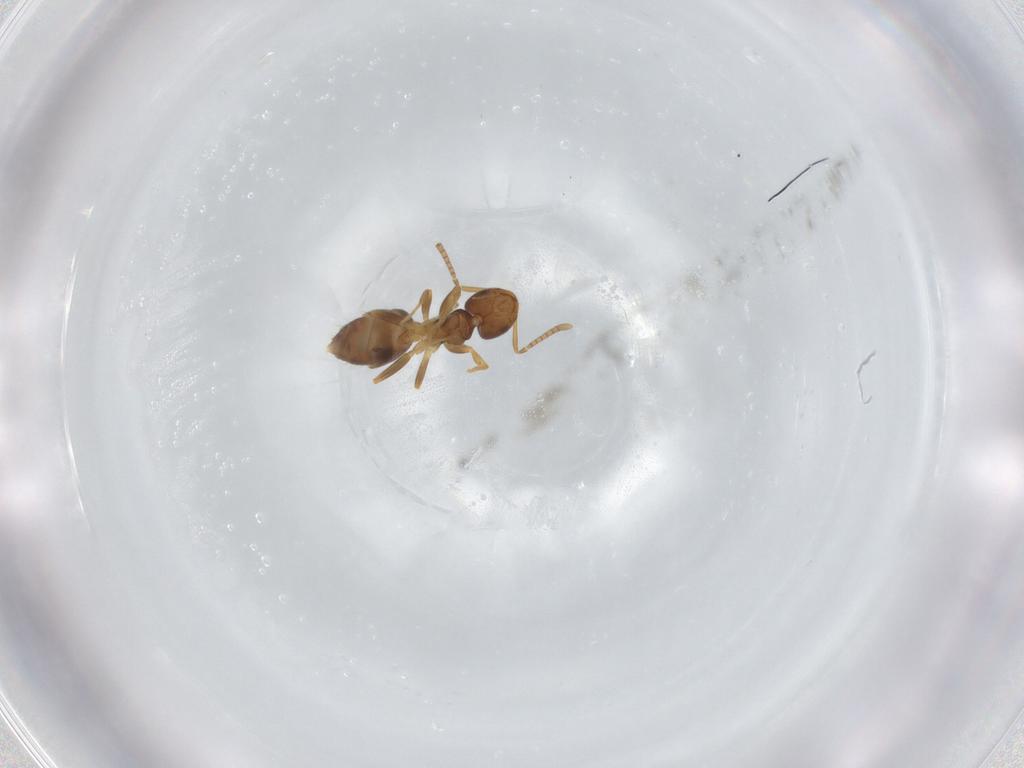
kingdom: Animalia
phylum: Arthropoda
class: Insecta
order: Hymenoptera
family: Formicidae
